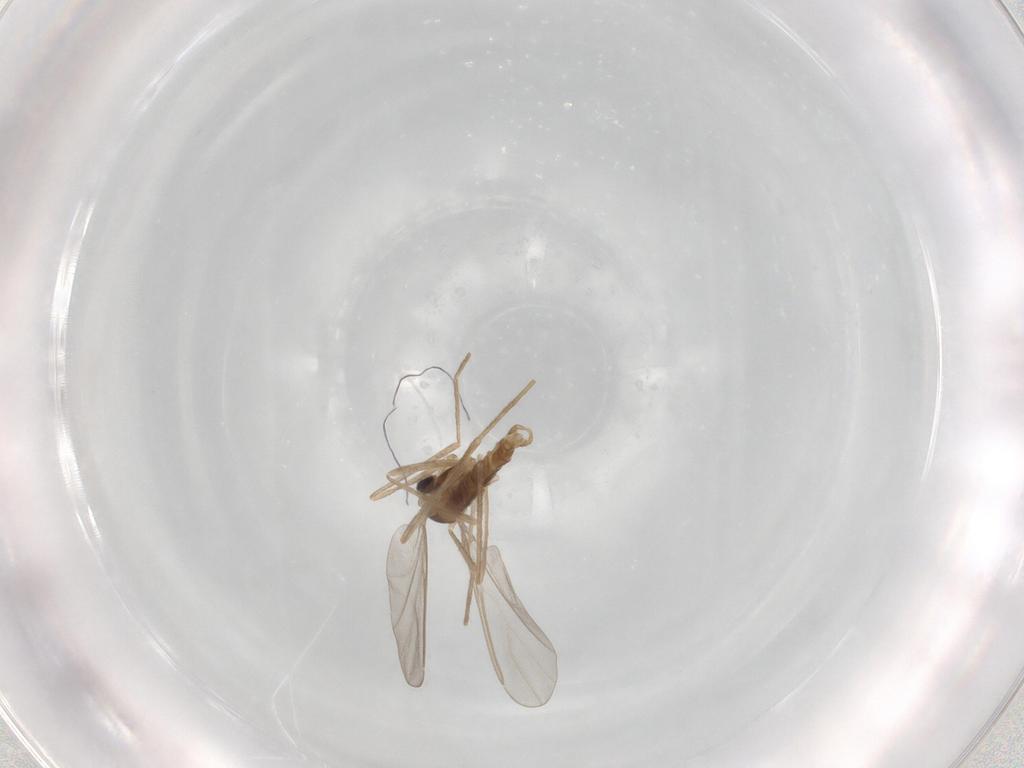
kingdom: Animalia
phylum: Arthropoda
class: Insecta
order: Diptera
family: Cecidomyiidae
